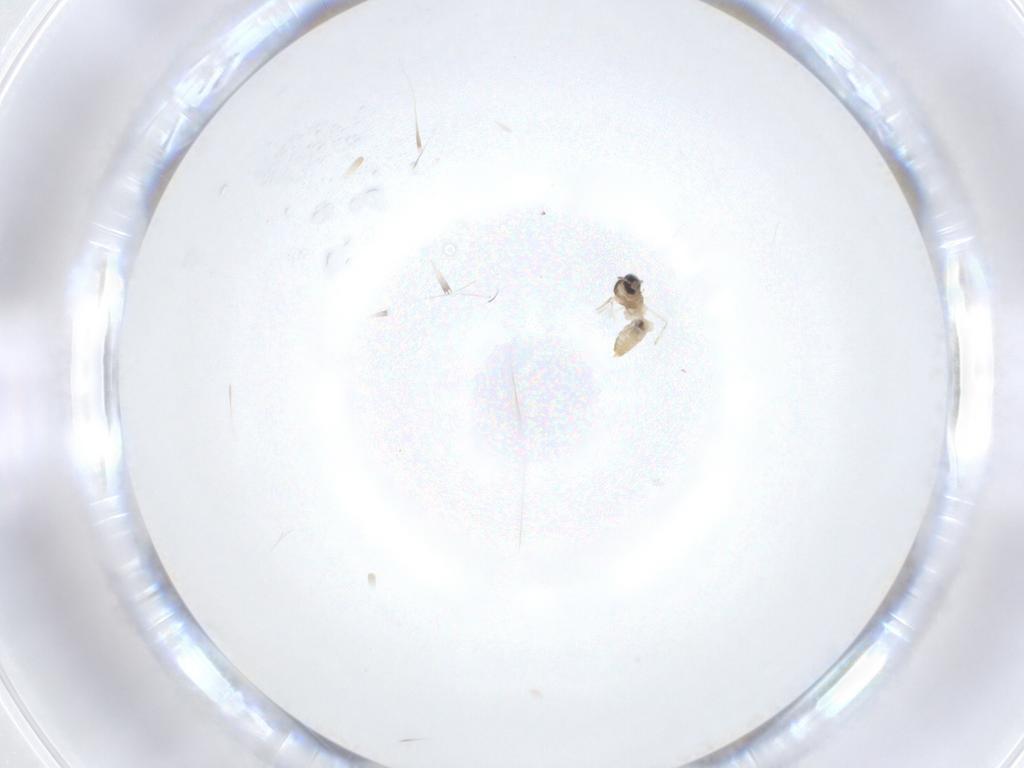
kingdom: Animalia
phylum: Arthropoda
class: Insecta
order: Diptera
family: Cecidomyiidae
